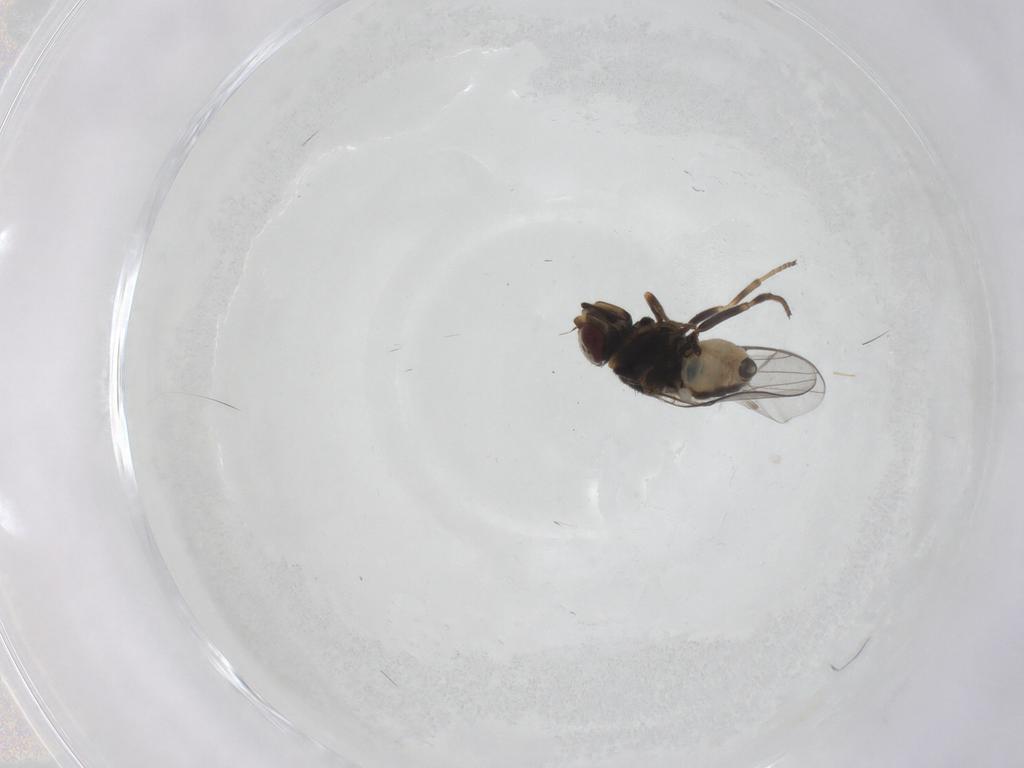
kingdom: Animalia
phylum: Arthropoda
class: Insecta
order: Diptera
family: Chloropidae
